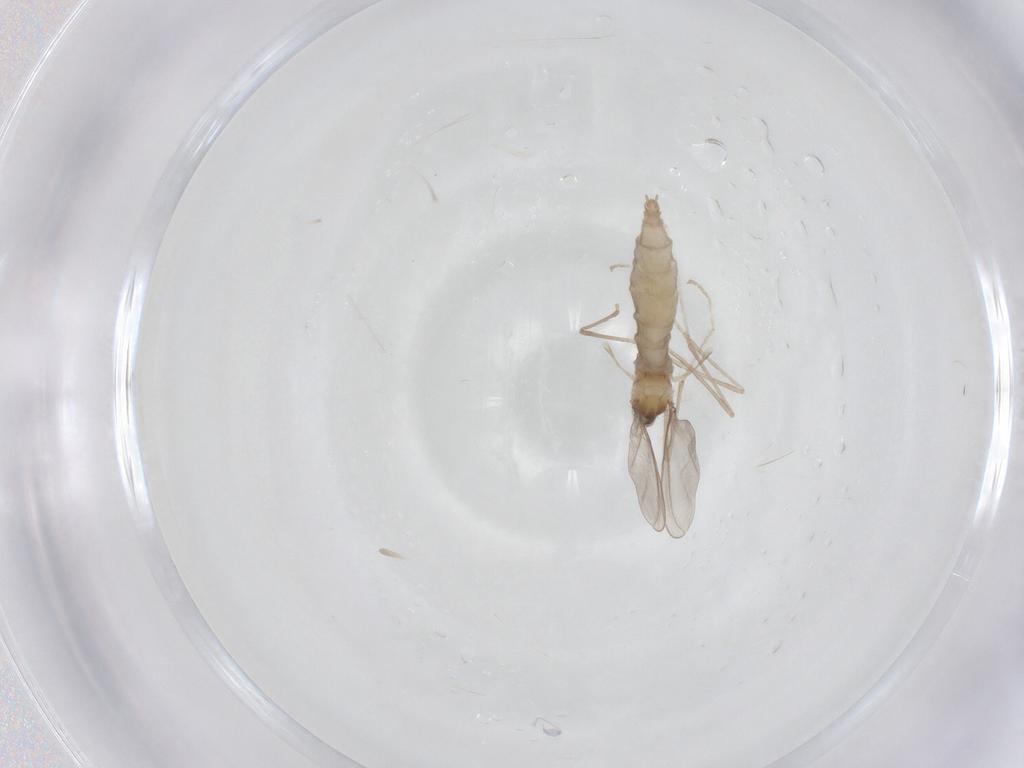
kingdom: Animalia
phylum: Arthropoda
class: Insecta
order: Diptera
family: Cecidomyiidae
